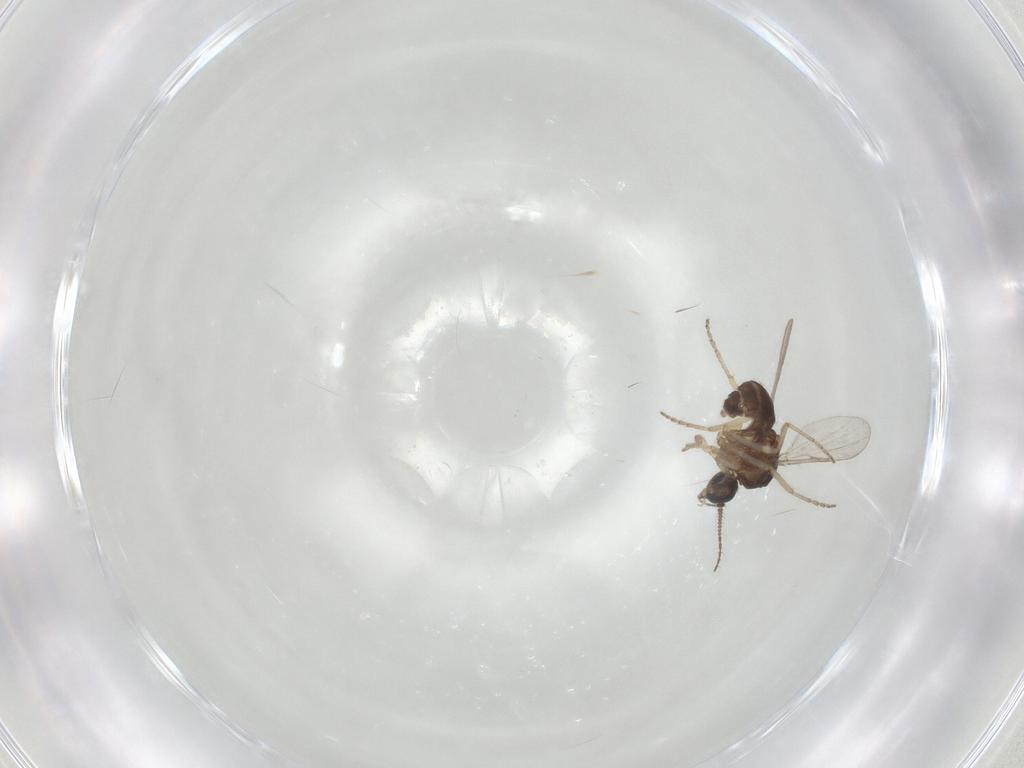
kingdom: Animalia
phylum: Arthropoda
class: Insecta
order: Diptera
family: Ceratopogonidae
